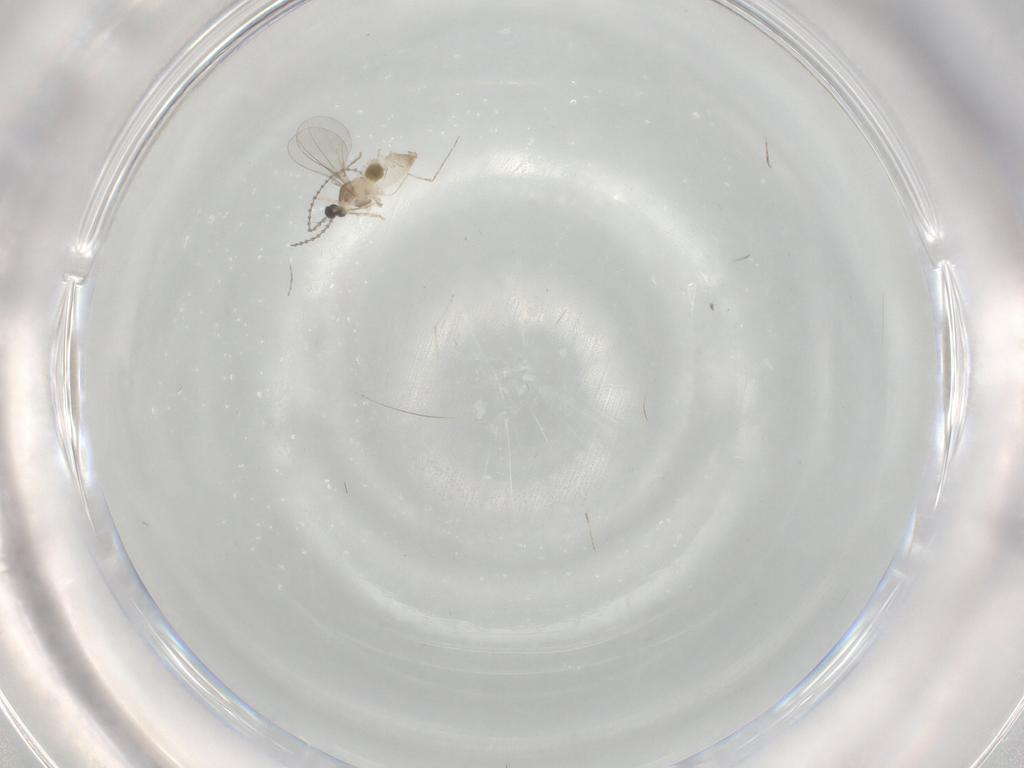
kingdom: Animalia
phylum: Arthropoda
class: Insecta
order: Diptera
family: Cecidomyiidae
